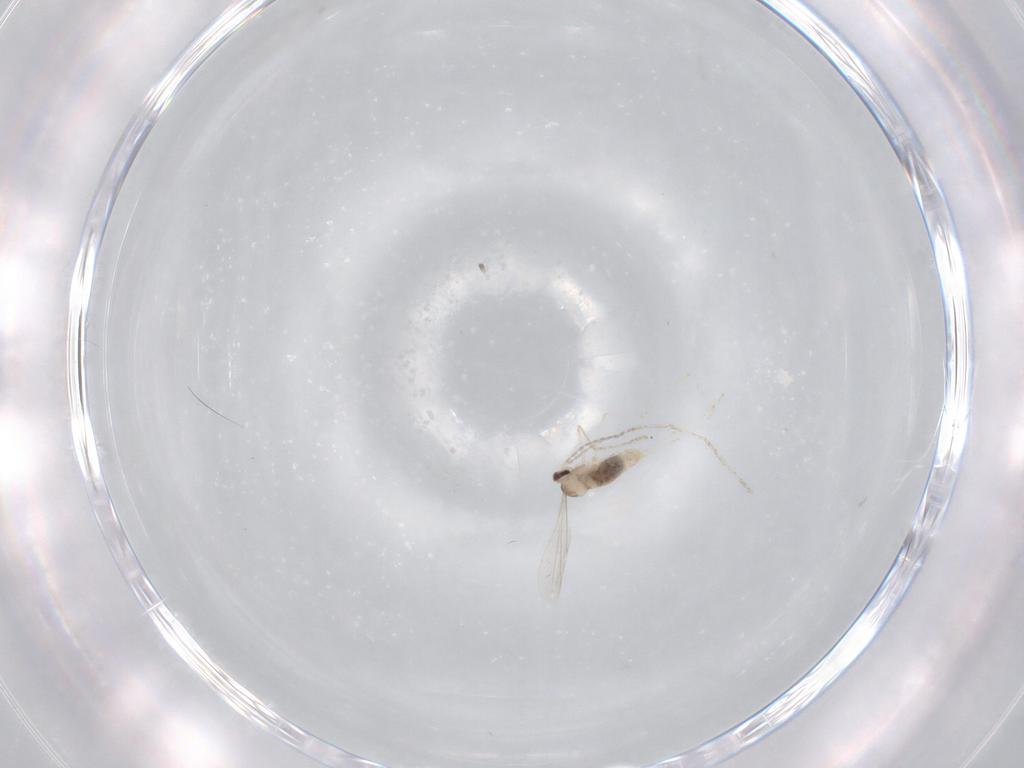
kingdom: Animalia
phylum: Arthropoda
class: Insecta
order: Diptera
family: Cecidomyiidae
